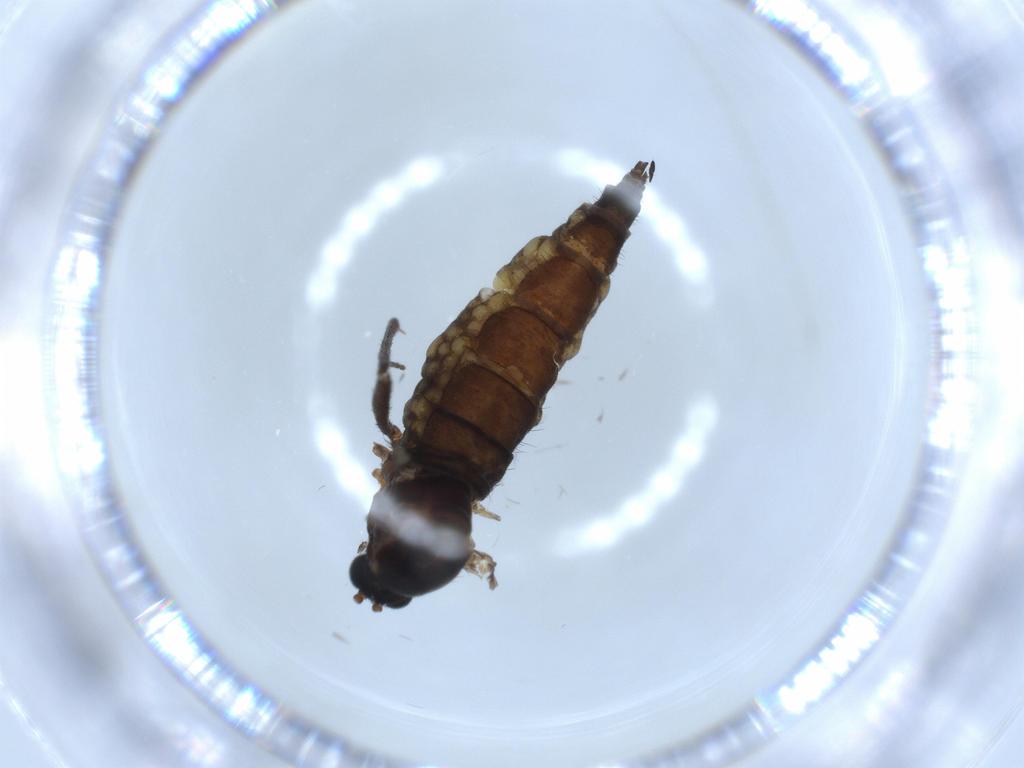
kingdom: Animalia
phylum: Arthropoda
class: Insecta
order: Diptera
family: Sciaridae
